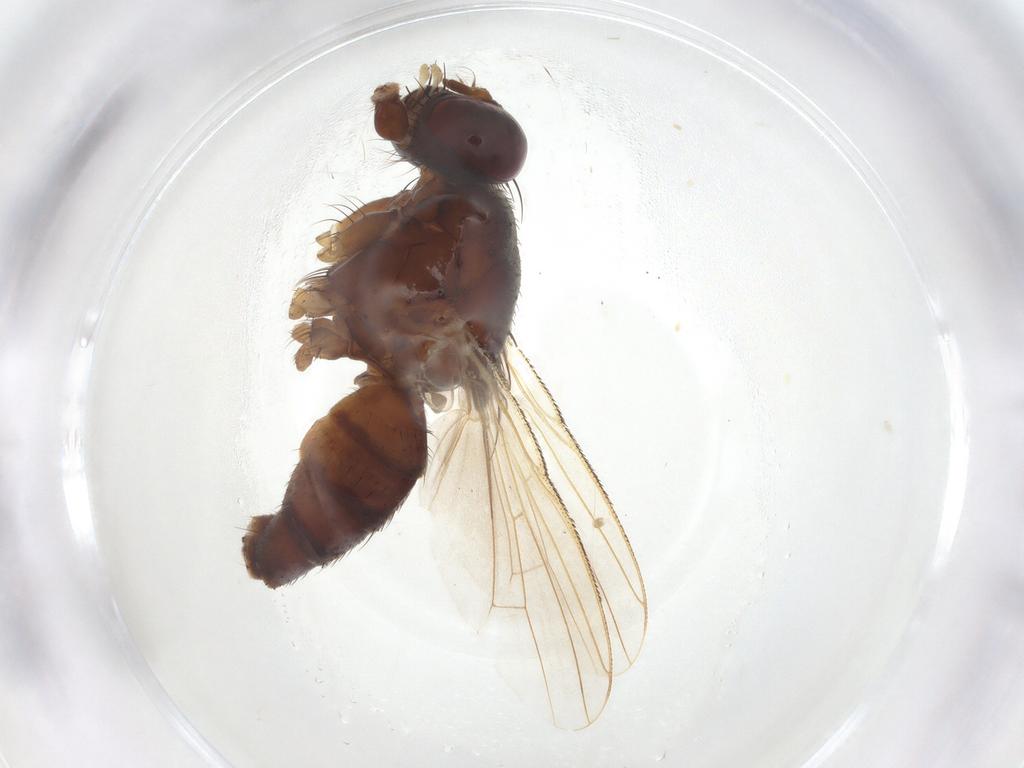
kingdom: Animalia
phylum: Arthropoda
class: Insecta
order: Diptera
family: Muscidae
